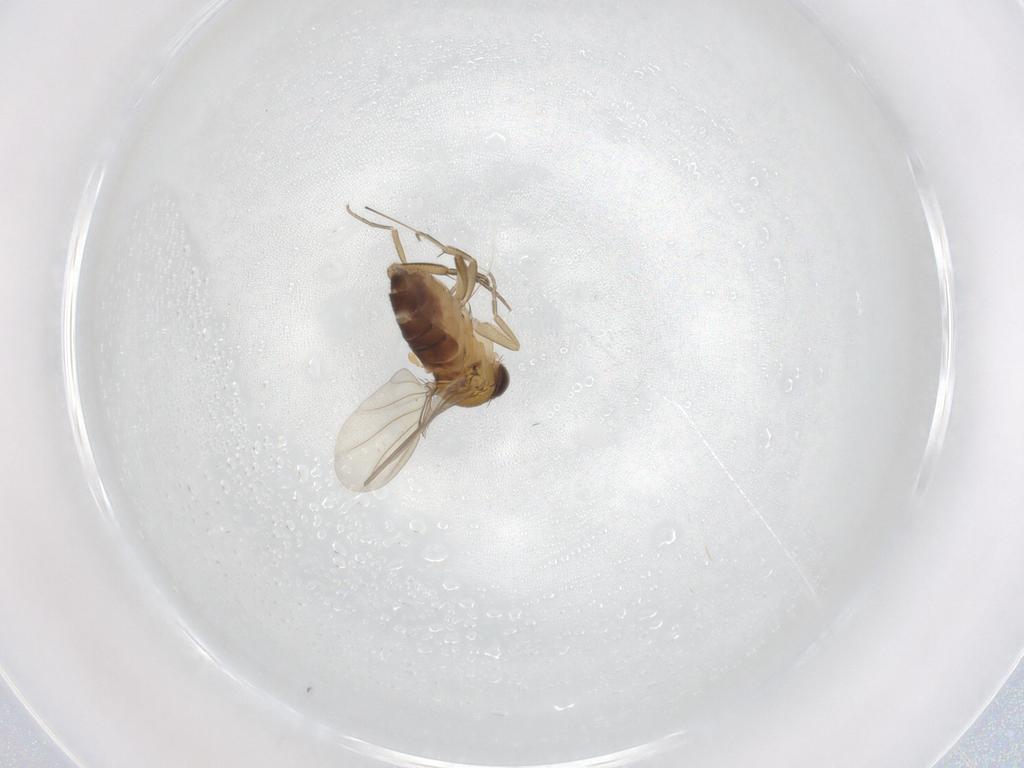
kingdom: Animalia
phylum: Arthropoda
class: Insecta
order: Diptera
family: Phoridae
